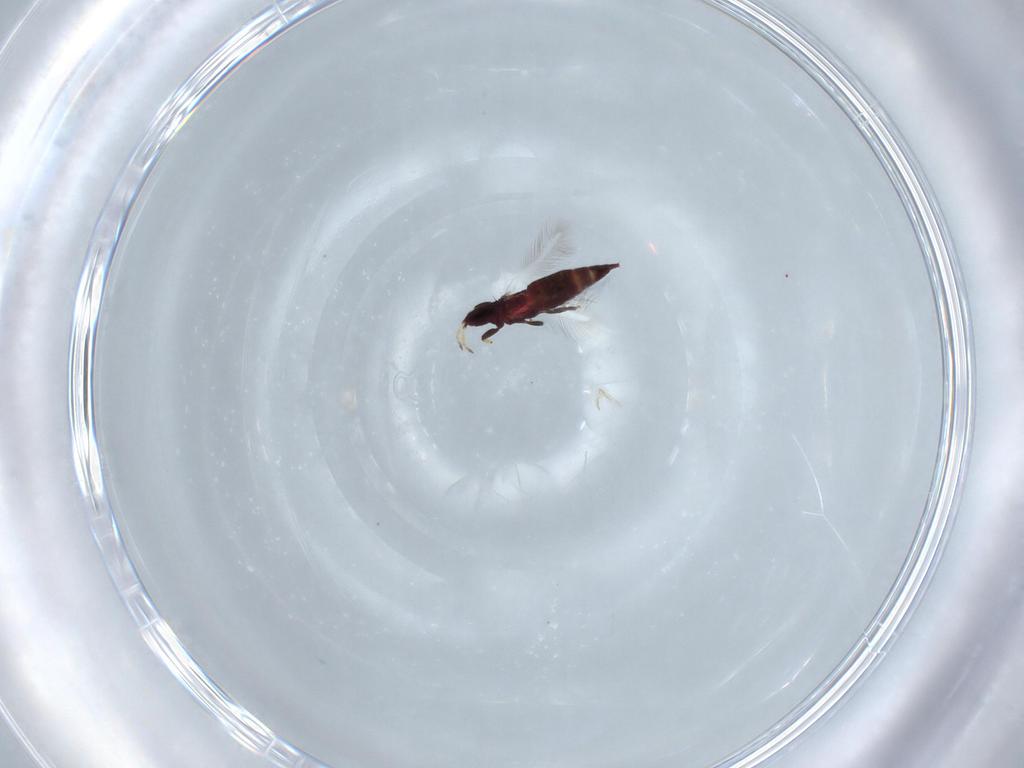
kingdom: Animalia
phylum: Arthropoda
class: Insecta
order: Thysanoptera
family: Phlaeothripidae
